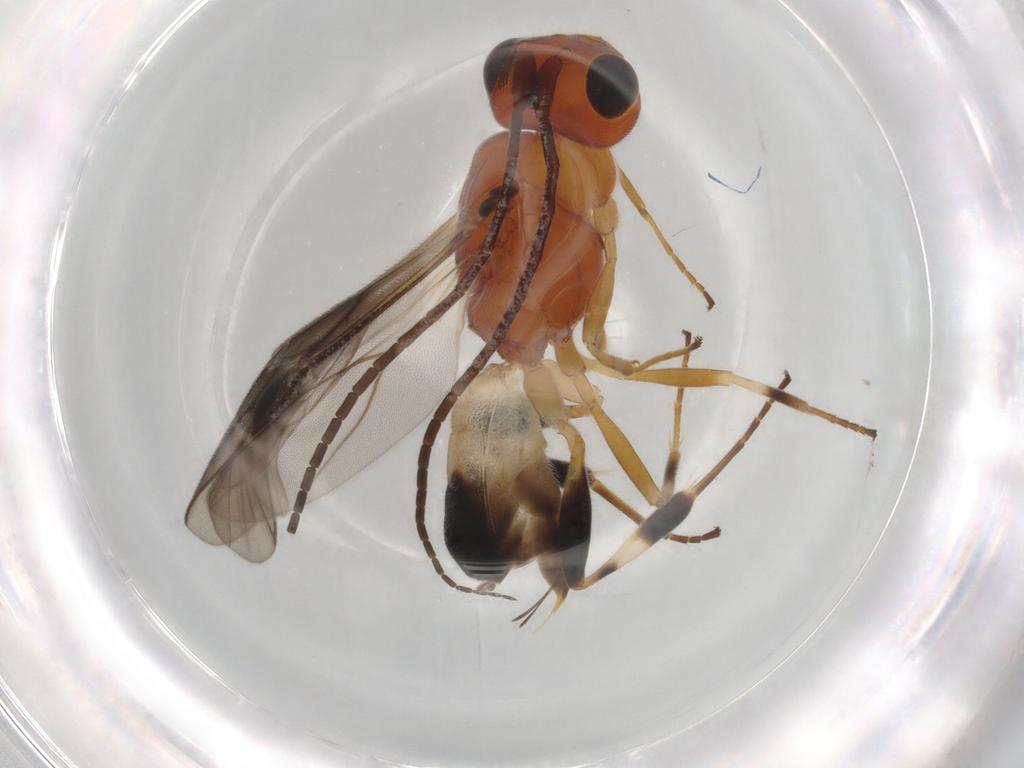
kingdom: Animalia
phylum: Arthropoda
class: Insecta
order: Hymenoptera
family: Braconidae
